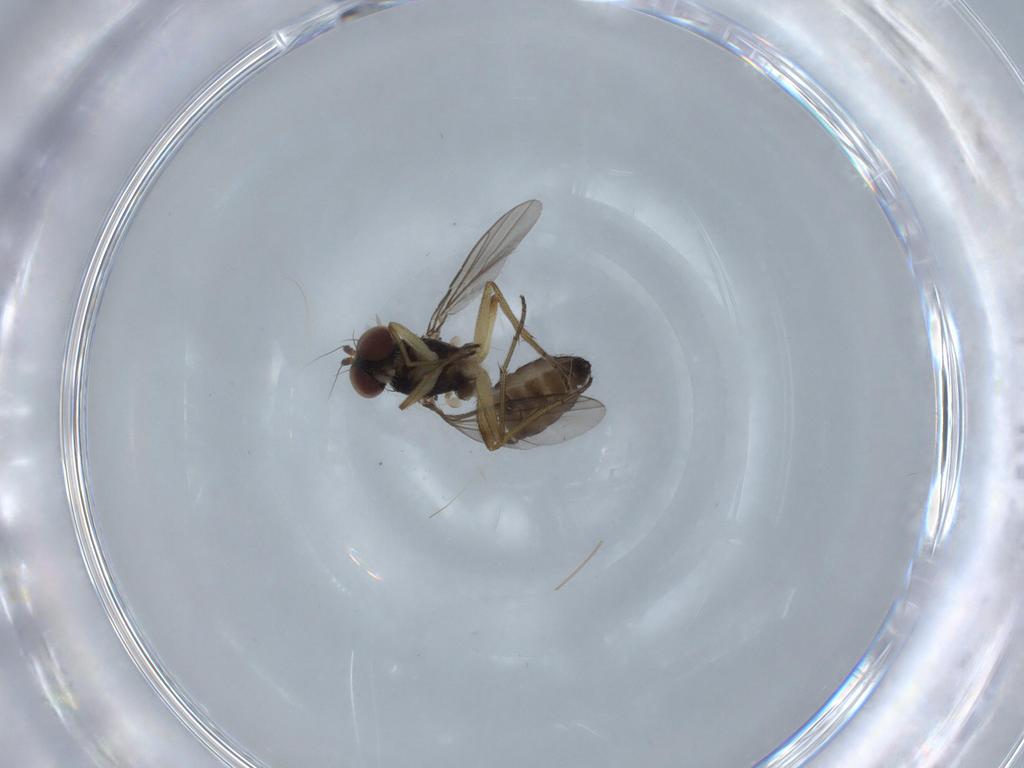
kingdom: Animalia
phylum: Arthropoda
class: Insecta
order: Diptera
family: Dolichopodidae
